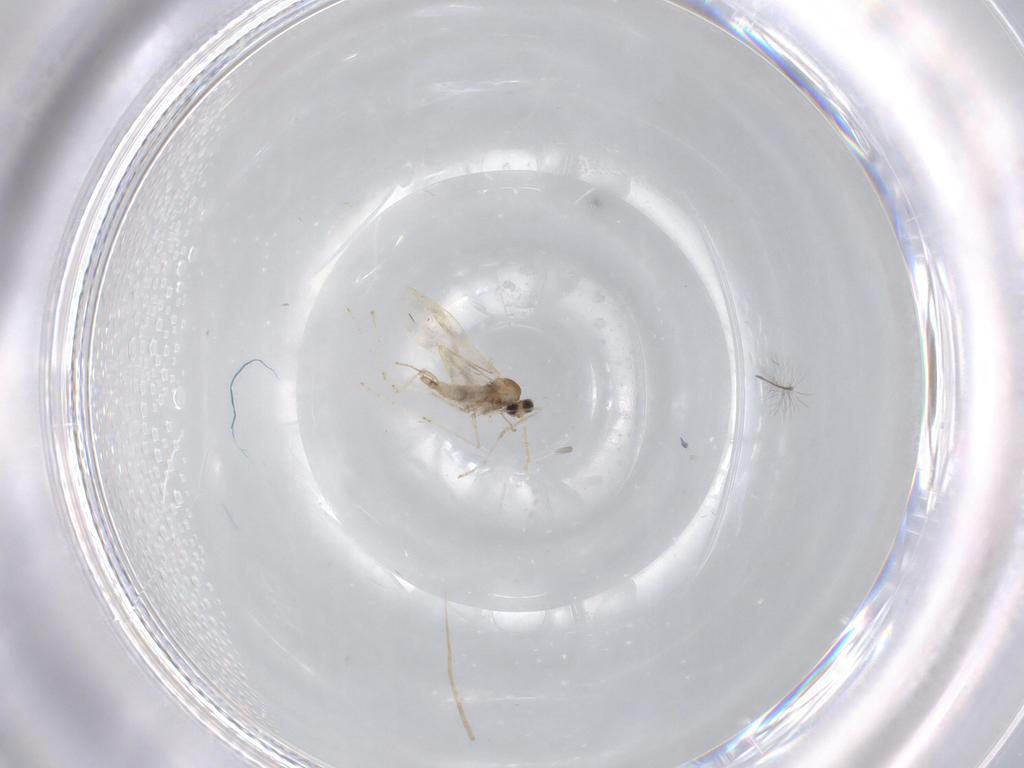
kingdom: Animalia
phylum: Arthropoda
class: Insecta
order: Diptera
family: Chironomidae
